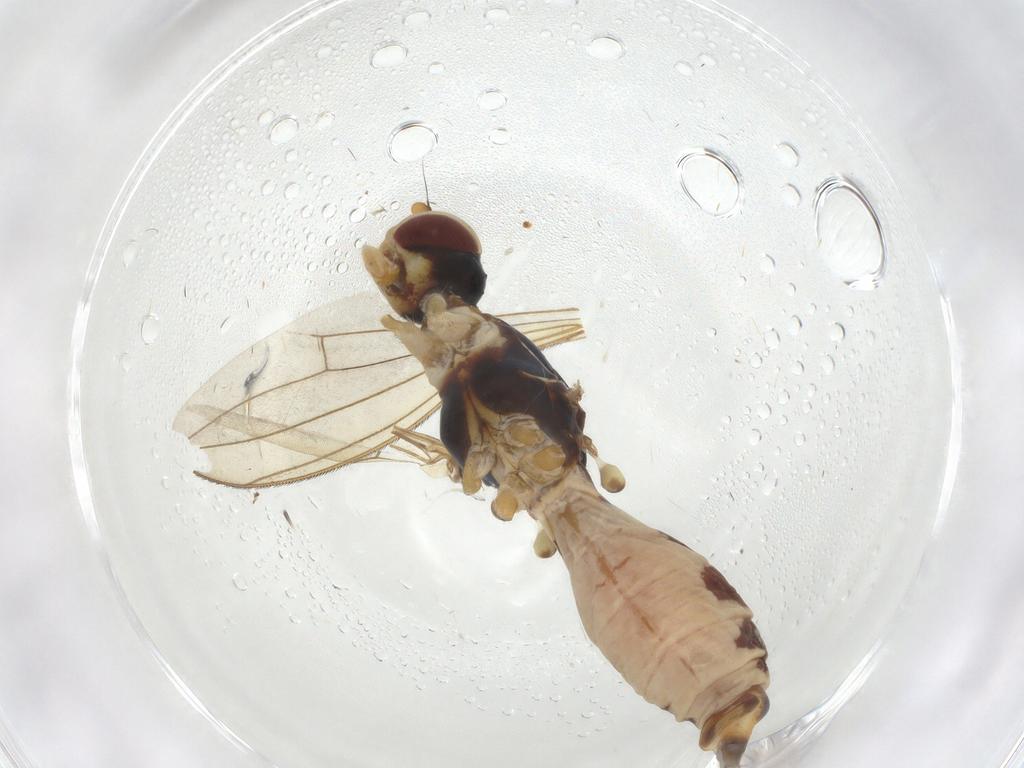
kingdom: Animalia
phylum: Arthropoda
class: Insecta
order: Diptera
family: Micropezidae
